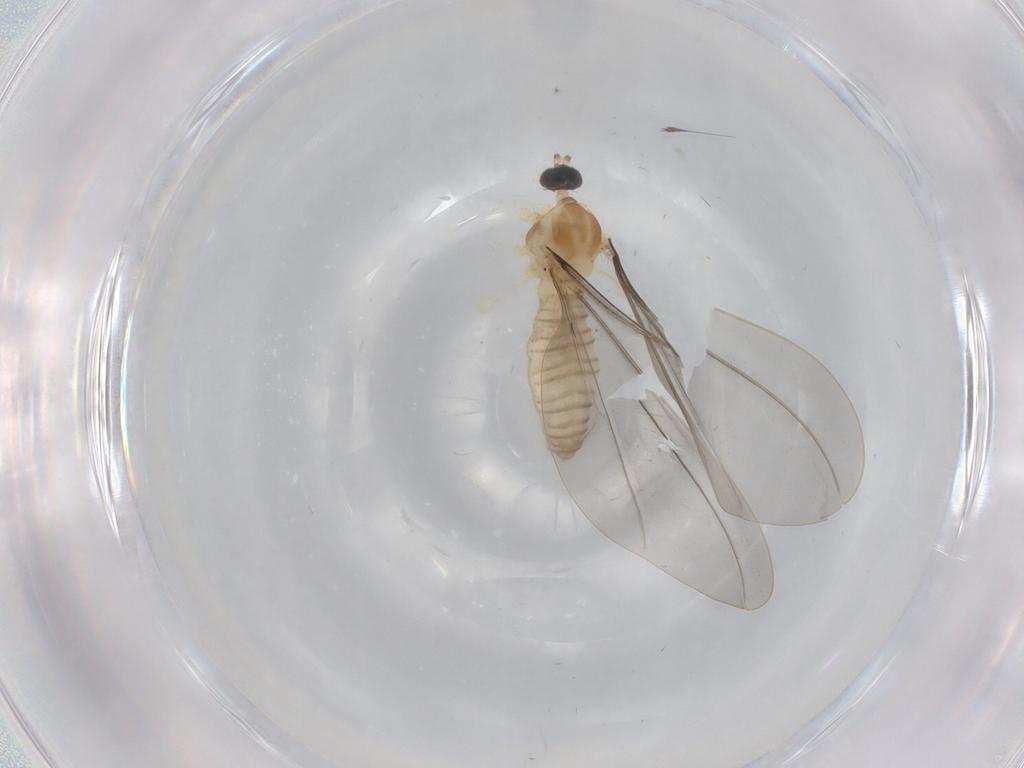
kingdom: Animalia
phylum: Arthropoda
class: Insecta
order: Diptera
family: Cecidomyiidae
